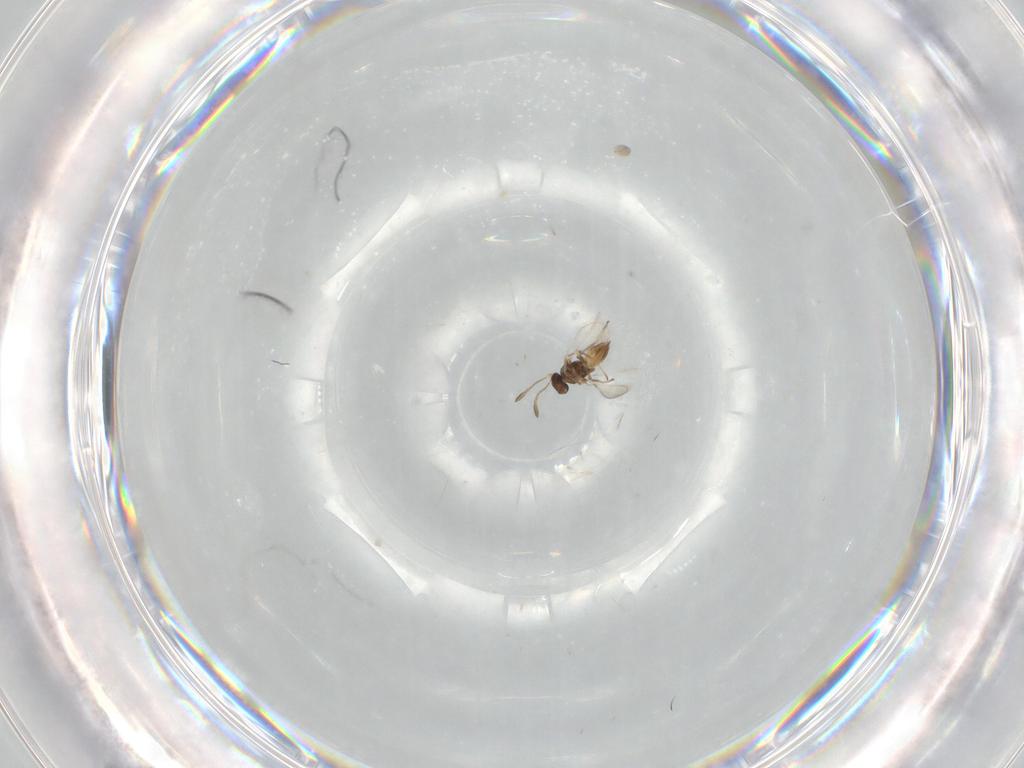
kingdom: Animalia
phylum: Arthropoda
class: Insecta
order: Hymenoptera
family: Mymaridae
